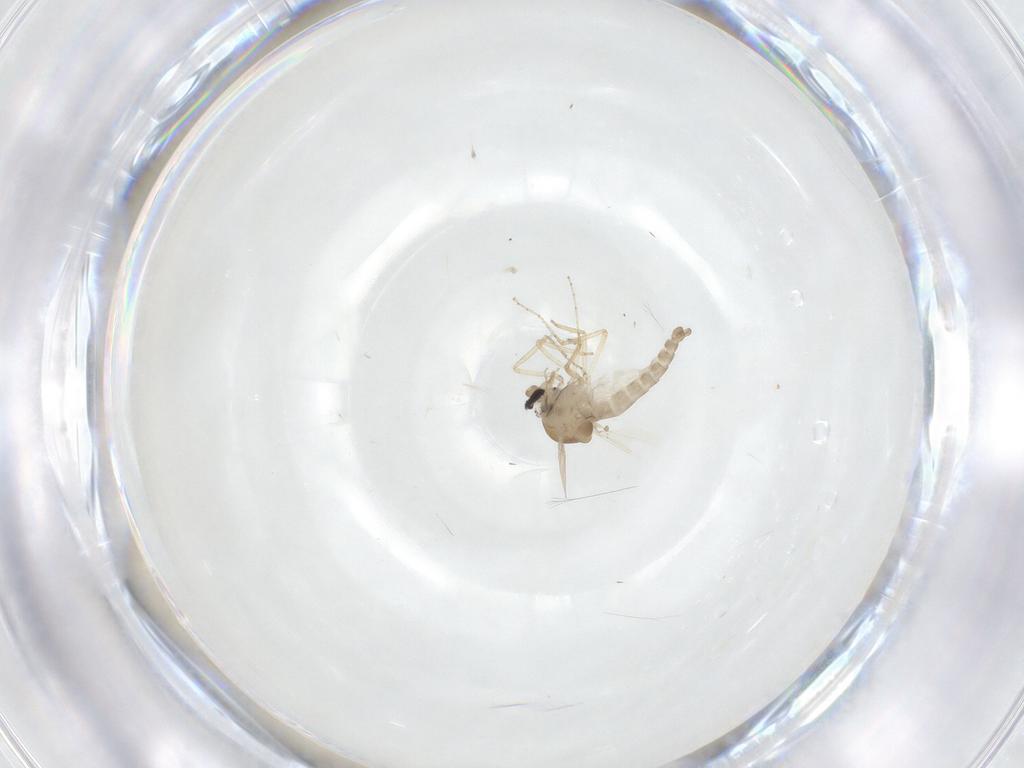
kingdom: Animalia
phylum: Arthropoda
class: Insecta
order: Diptera
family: Ceratopogonidae
